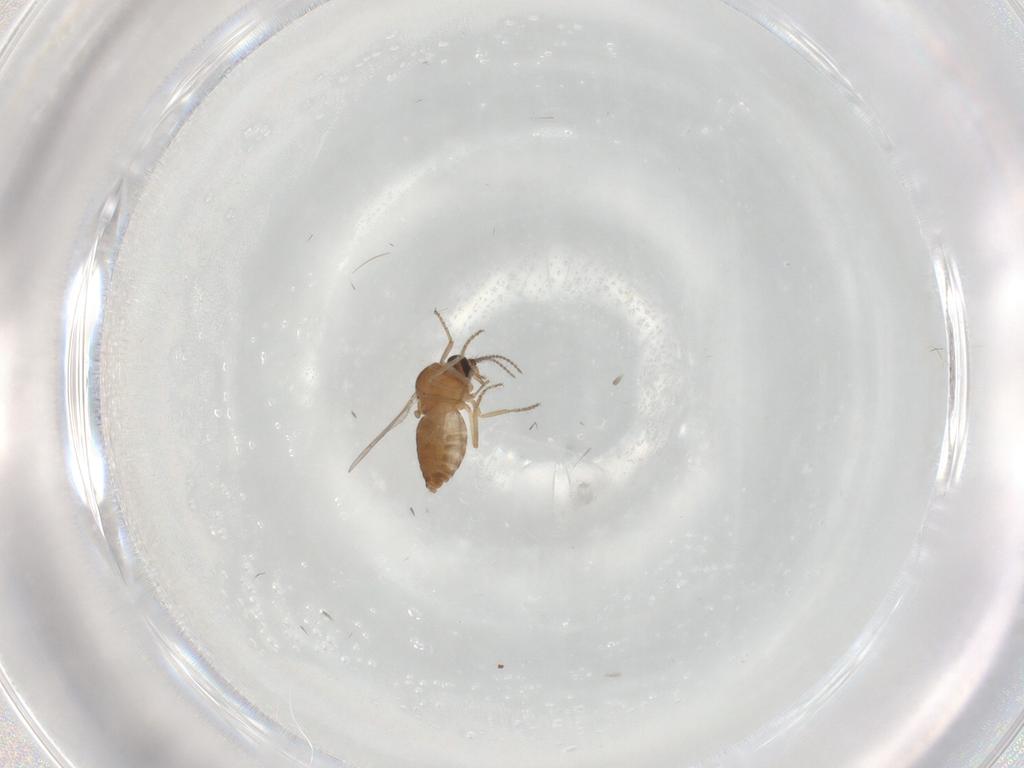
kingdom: Animalia
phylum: Arthropoda
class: Insecta
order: Diptera
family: Ceratopogonidae
